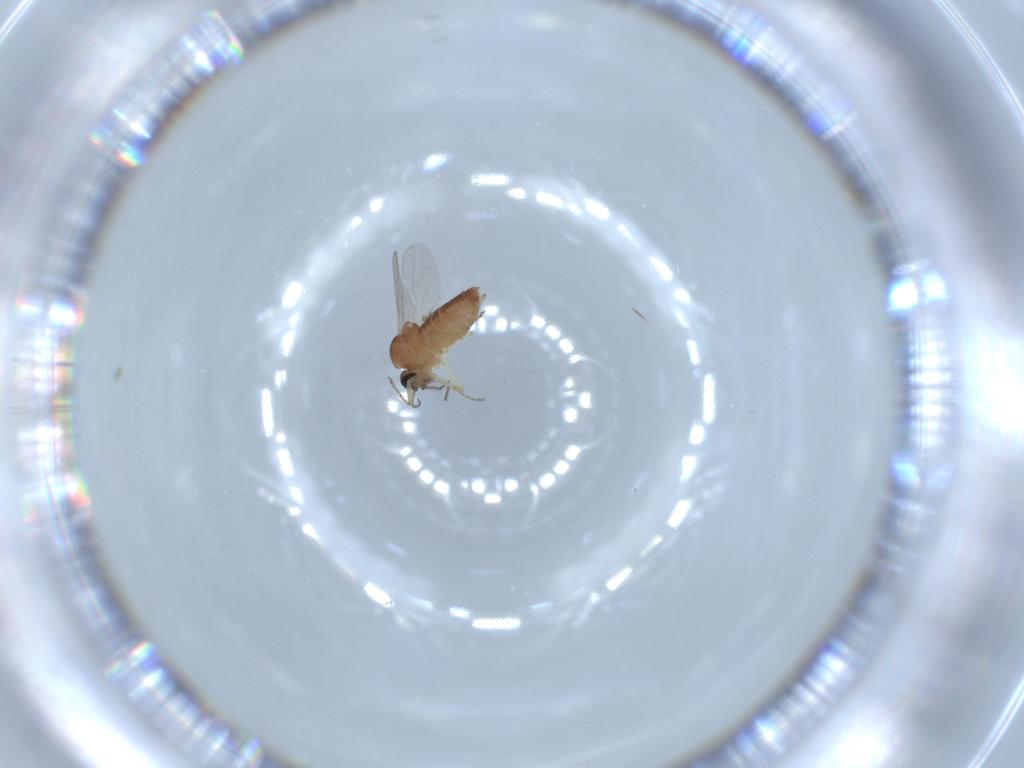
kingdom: Animalia
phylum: Arthropoda
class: Insecta
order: Diptera
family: Ceratopogonidae
